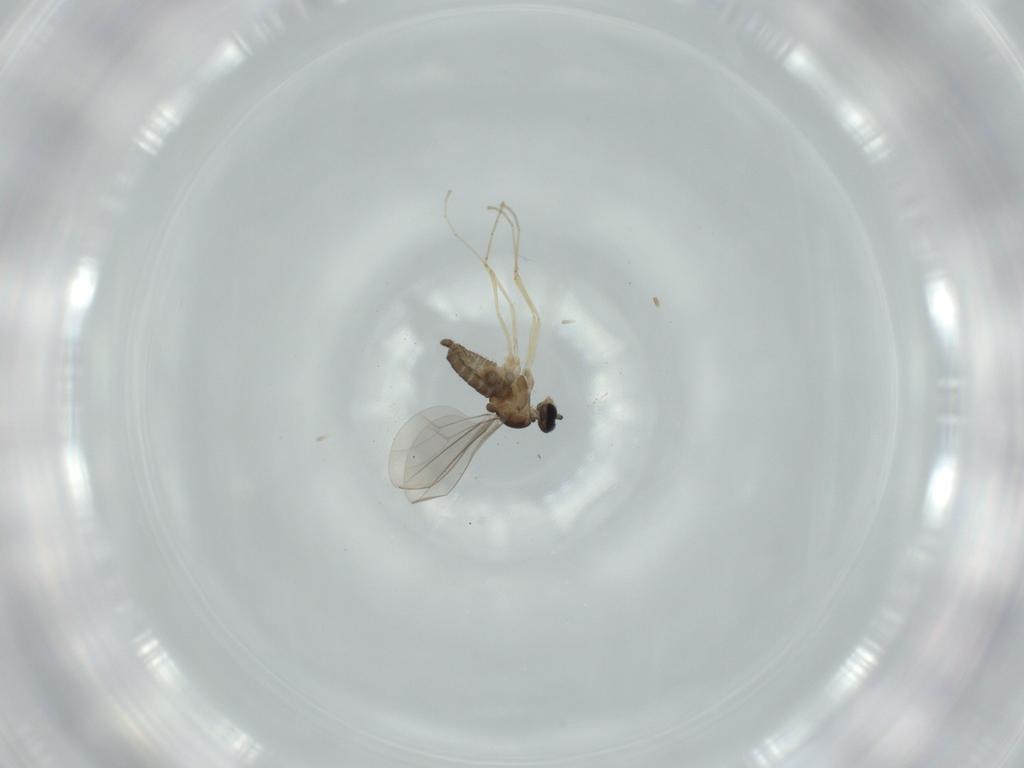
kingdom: Animalia
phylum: Arthropoda
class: Insecta
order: Diptera
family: Cecidomyiidae
